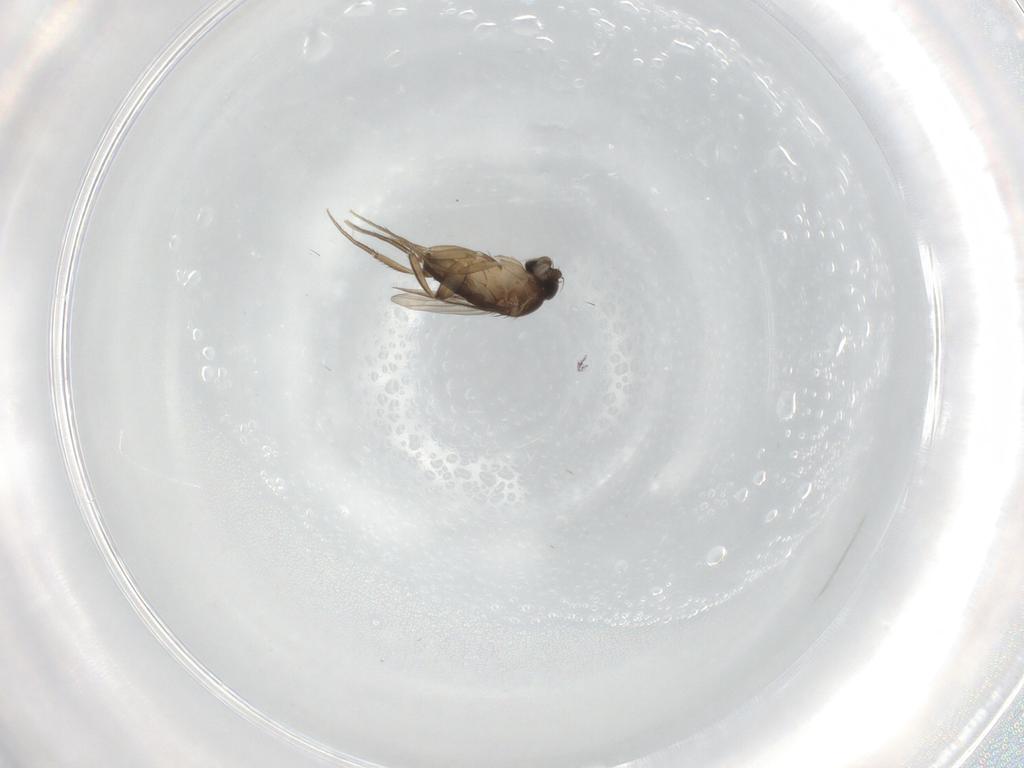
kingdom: Animalia
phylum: Arthropoda
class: Insecta
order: Diptera
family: Phoridae
